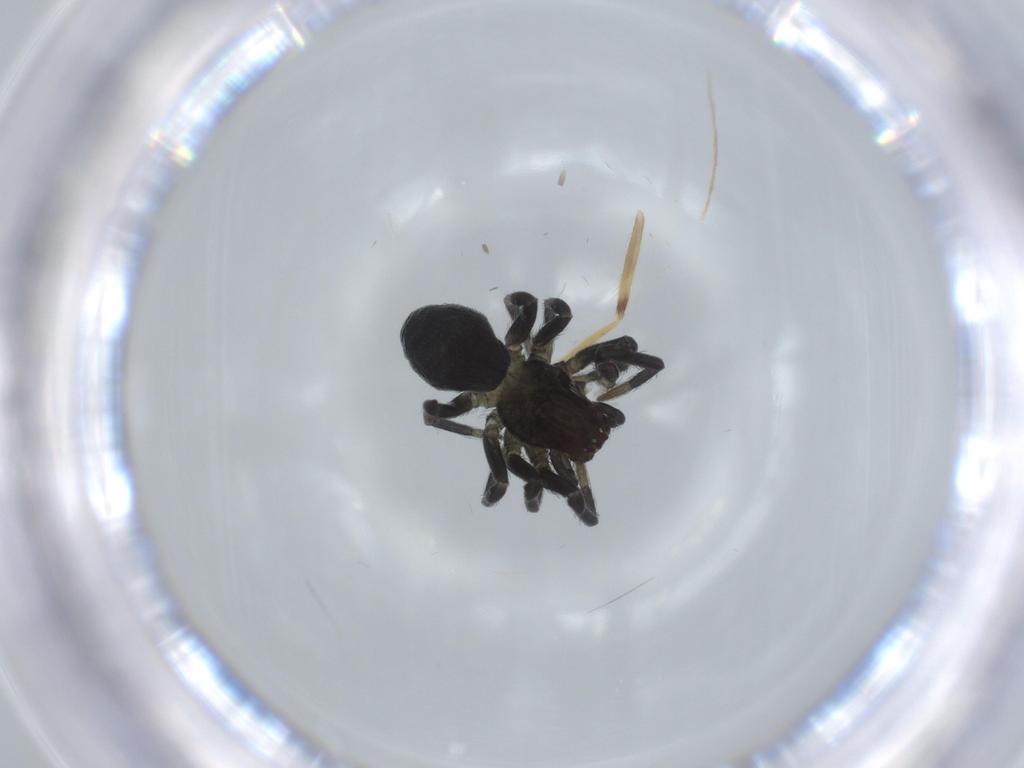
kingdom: Animalia
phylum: Arthropoda
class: Arachnida
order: Araneae
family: Dictynidae
